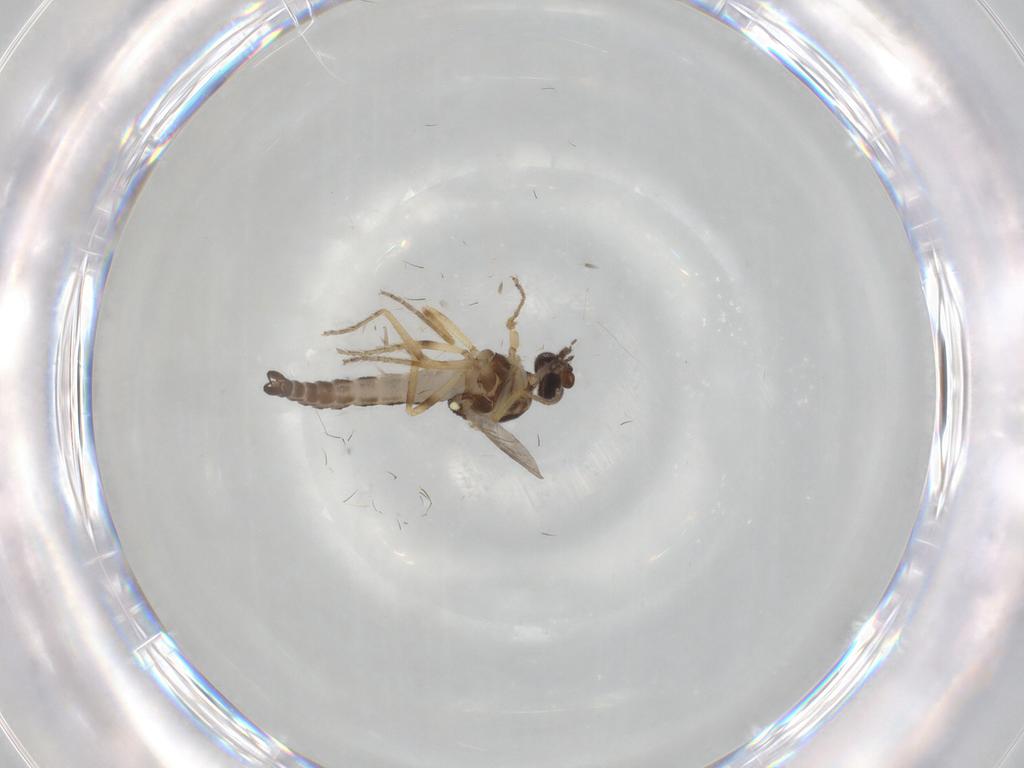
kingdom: Animalia
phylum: Arthropoda
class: Insecta
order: Diptera
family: Ceratopogonidae
